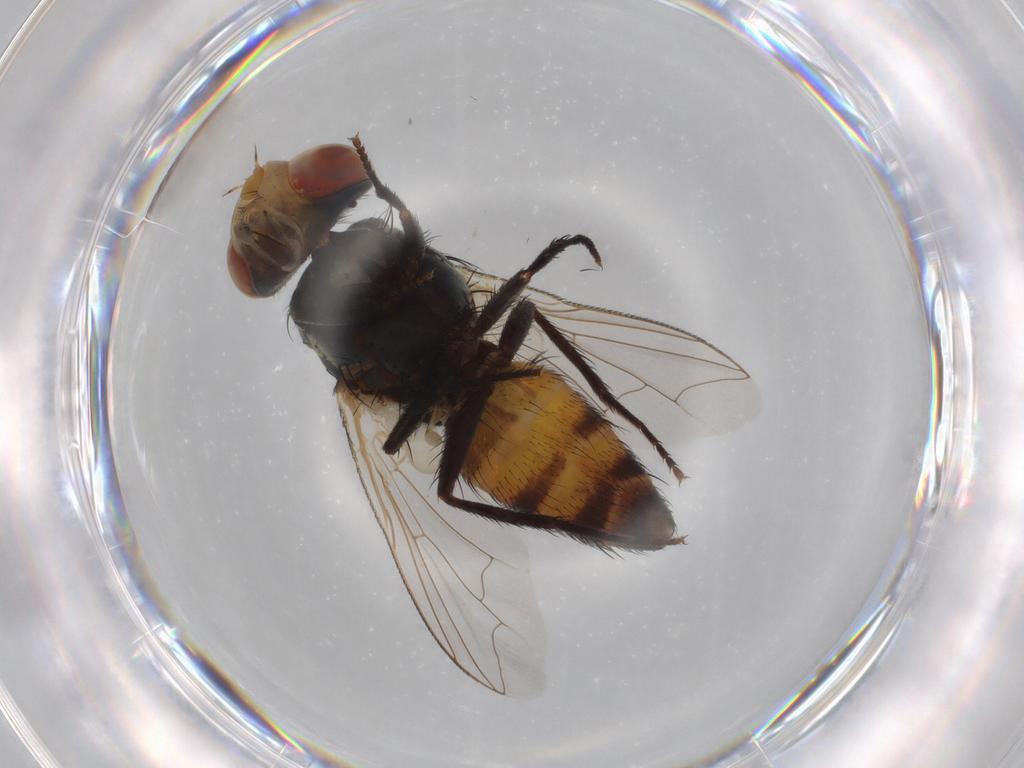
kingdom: Animalia
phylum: Arthropoda
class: Insecta
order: Diptera
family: Sarcophagidae
